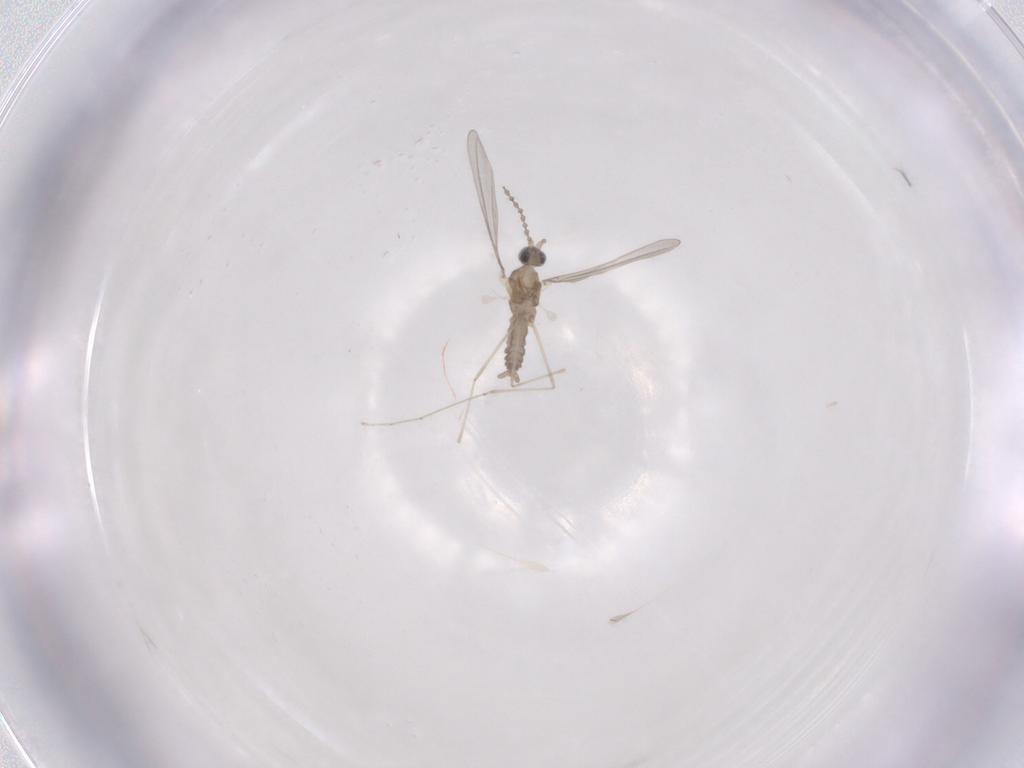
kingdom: Animalia
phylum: Arthropoda
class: Insecta
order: Diptera
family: Cecidomyiidae
